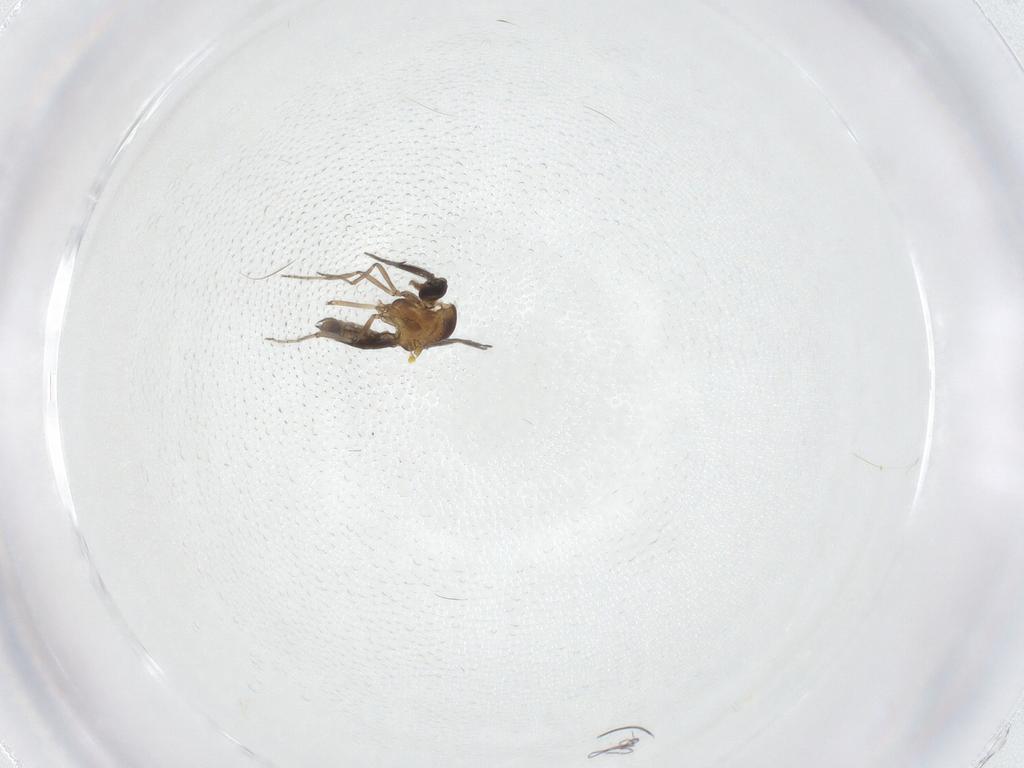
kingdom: Animalia
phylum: Arthropoda
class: Insecta
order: Diptera
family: Ceratopogonidae
